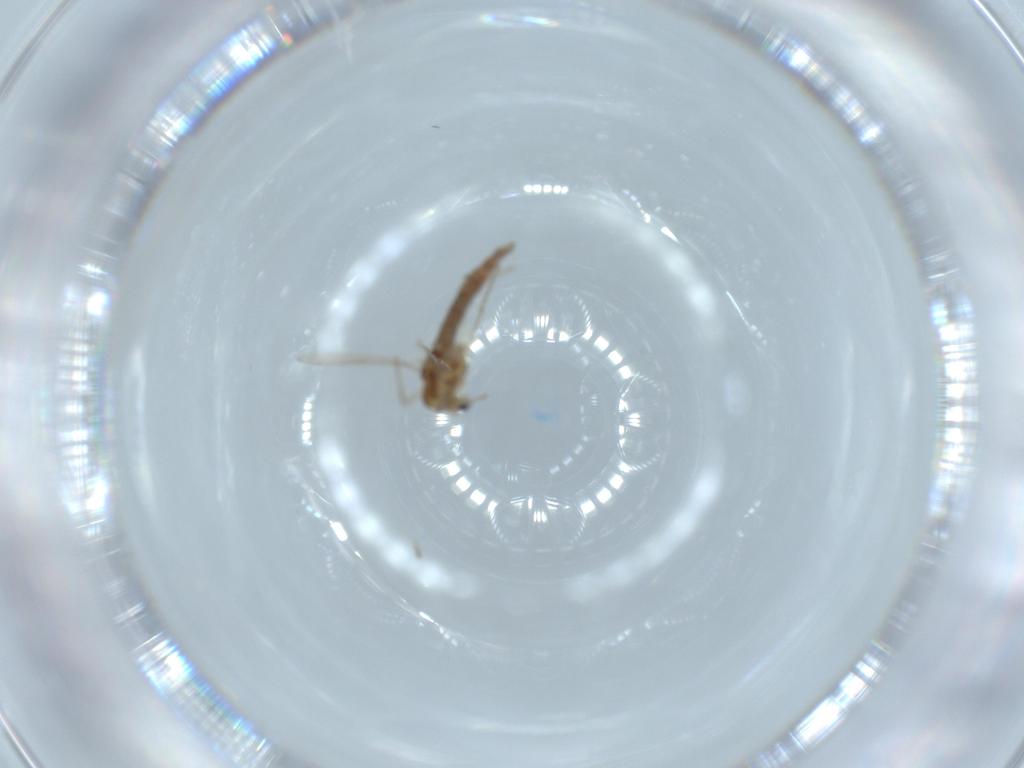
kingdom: Animalia
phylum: Arthropoda
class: Insecta
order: Diptera
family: Chironomidae
